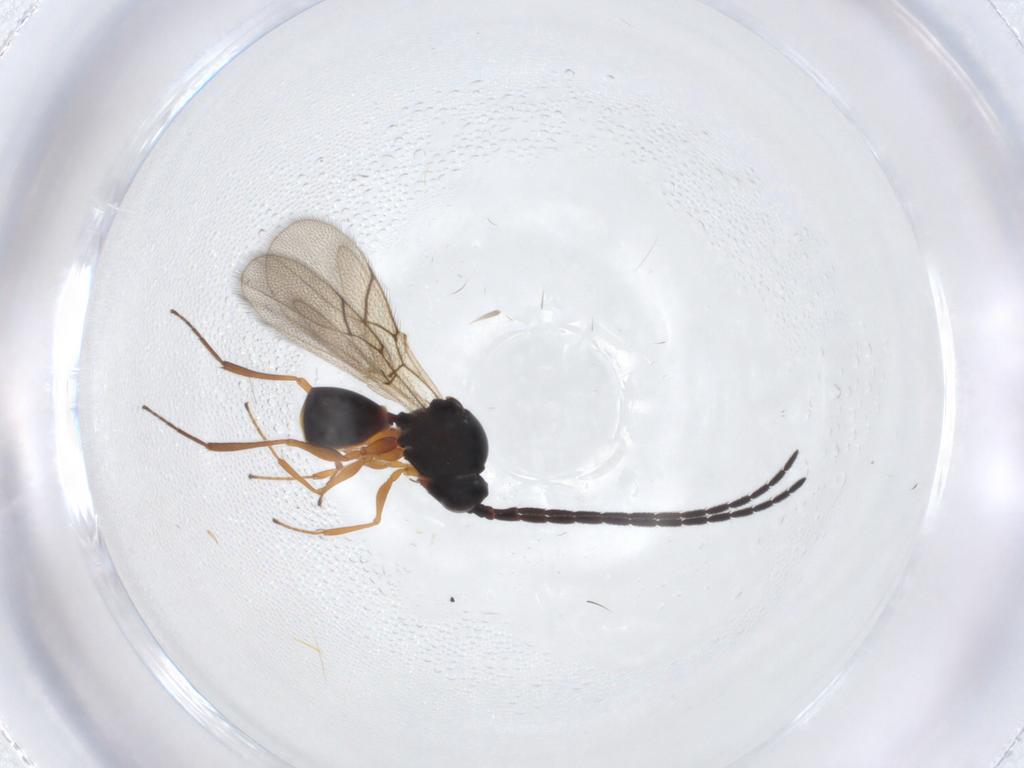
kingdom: Animalia
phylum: Arthropoda
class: Insecta
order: Hymenoptera
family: Figitidae
